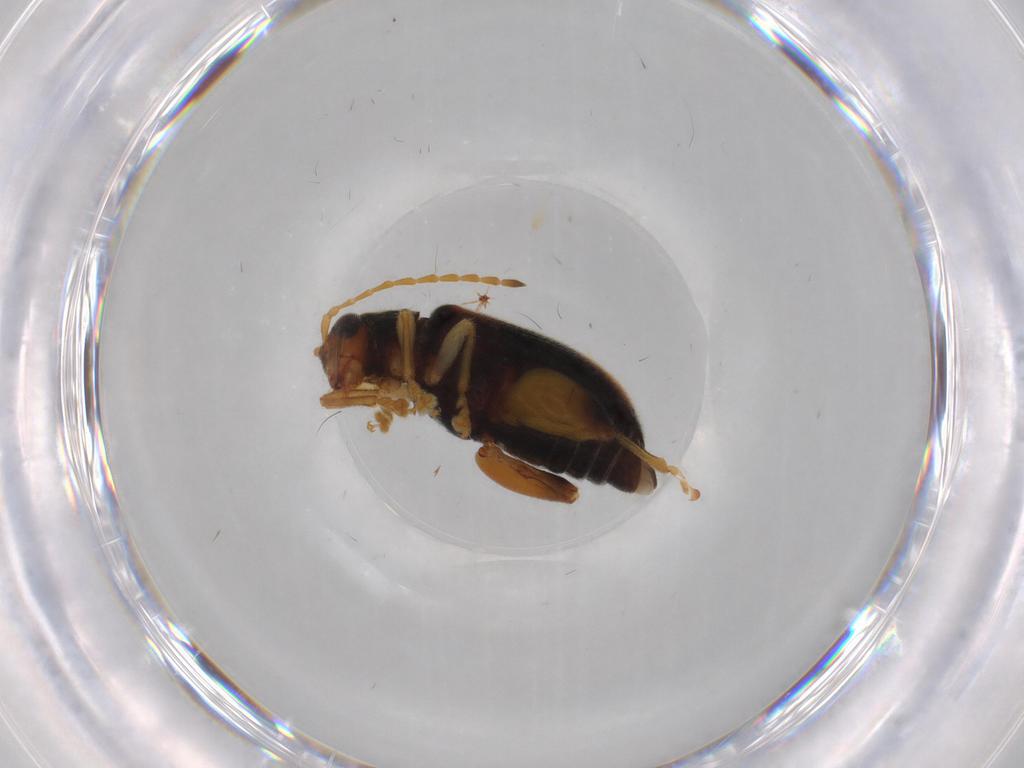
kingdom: Animalia
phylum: Arthropoda
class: Insecta
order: Coleoptera
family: Chrysomelidae
